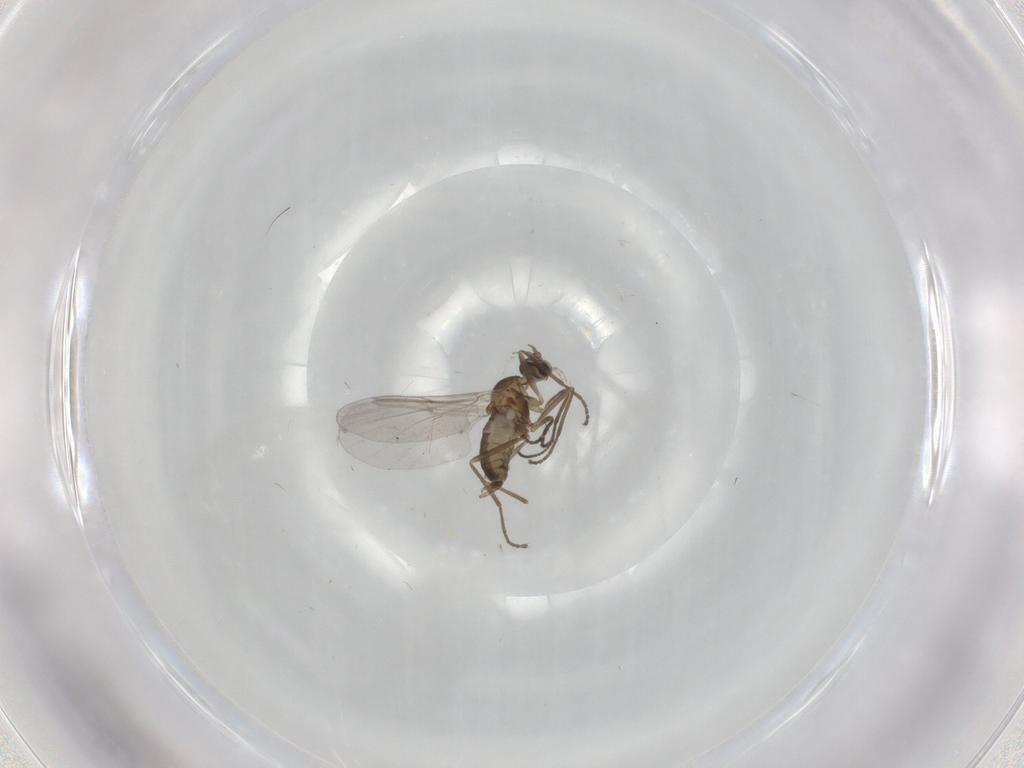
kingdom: Animalia
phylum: Arthropoda
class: Insecta
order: Diptera
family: Cecidomyiidae
